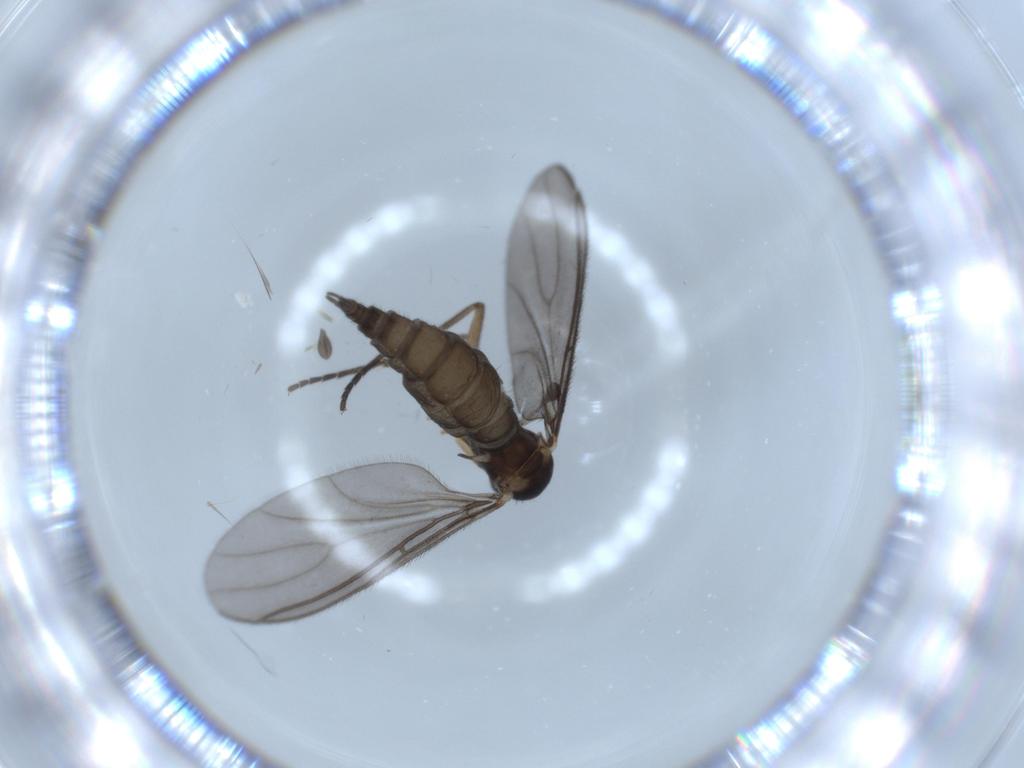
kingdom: Animalia
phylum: Arthropoda
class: Insecta
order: Diptera
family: Sciaridae
